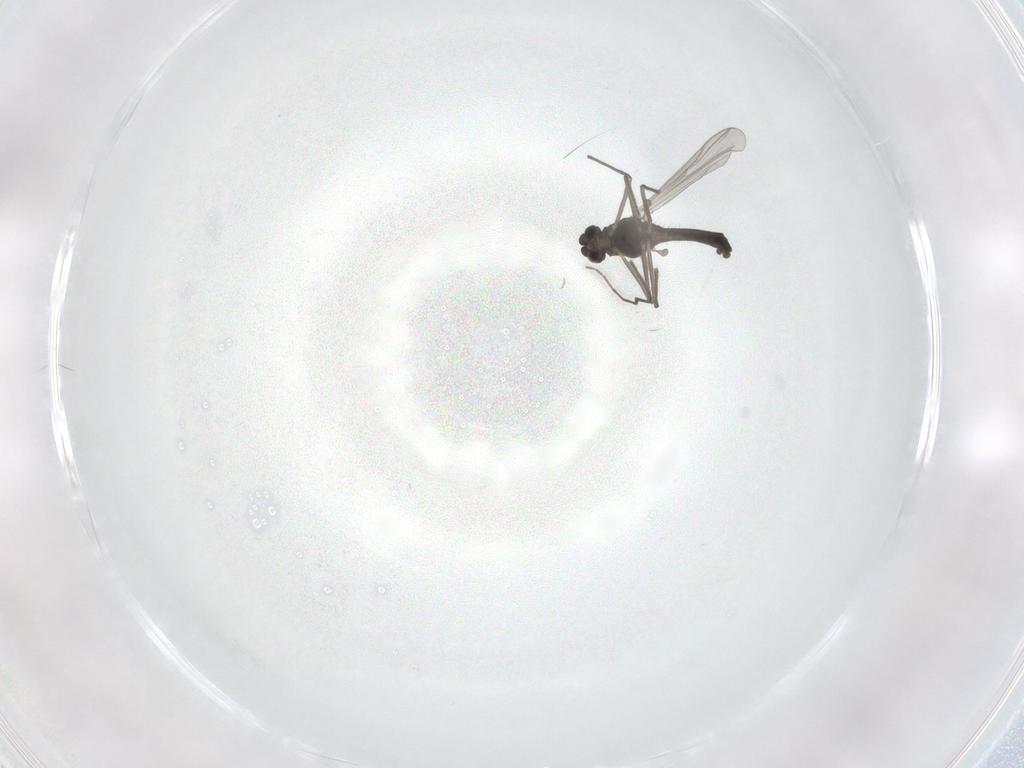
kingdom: Animalia
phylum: Arthropoda
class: Insecta
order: Diptera
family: Chironomidae
